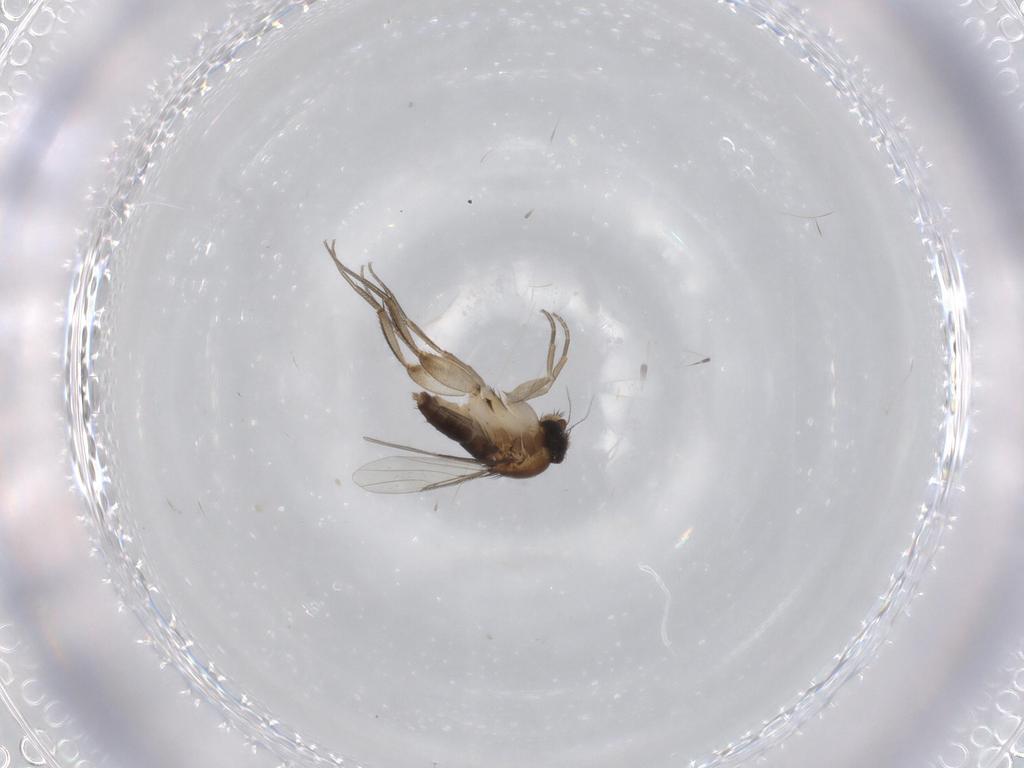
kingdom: Animalia
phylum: Arthropoda
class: Insecta
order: Diptera
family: Phoridae
